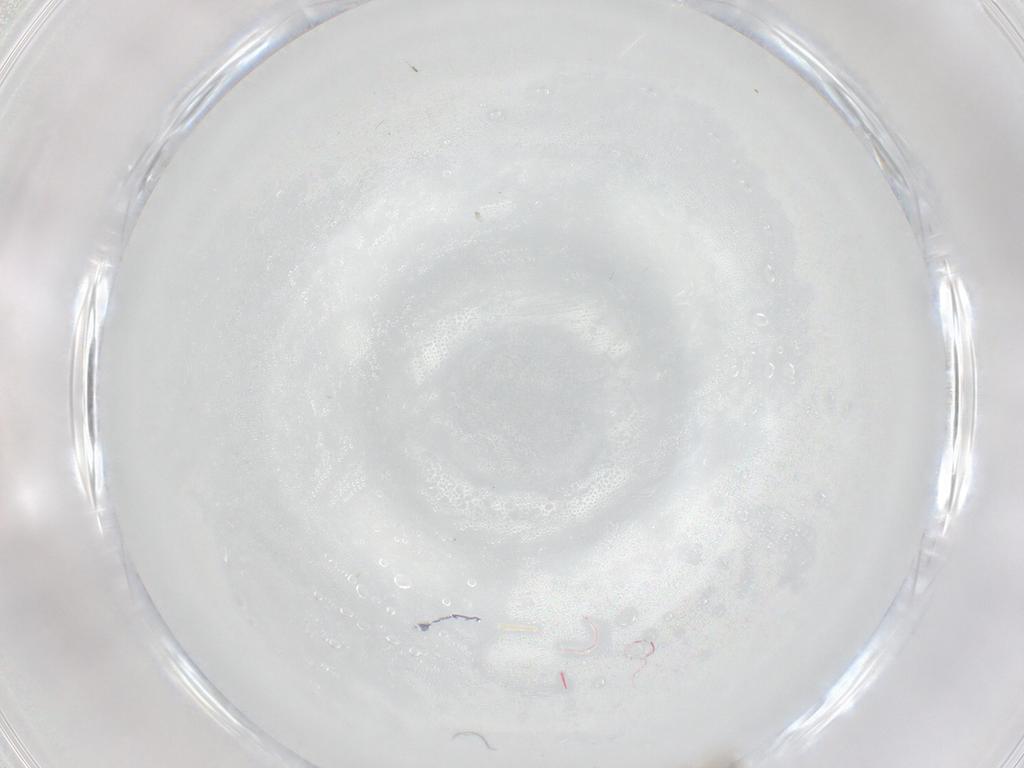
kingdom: Animalia
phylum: Arthropoda
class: Insecta
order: Diptera
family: Cecidomyiidae
